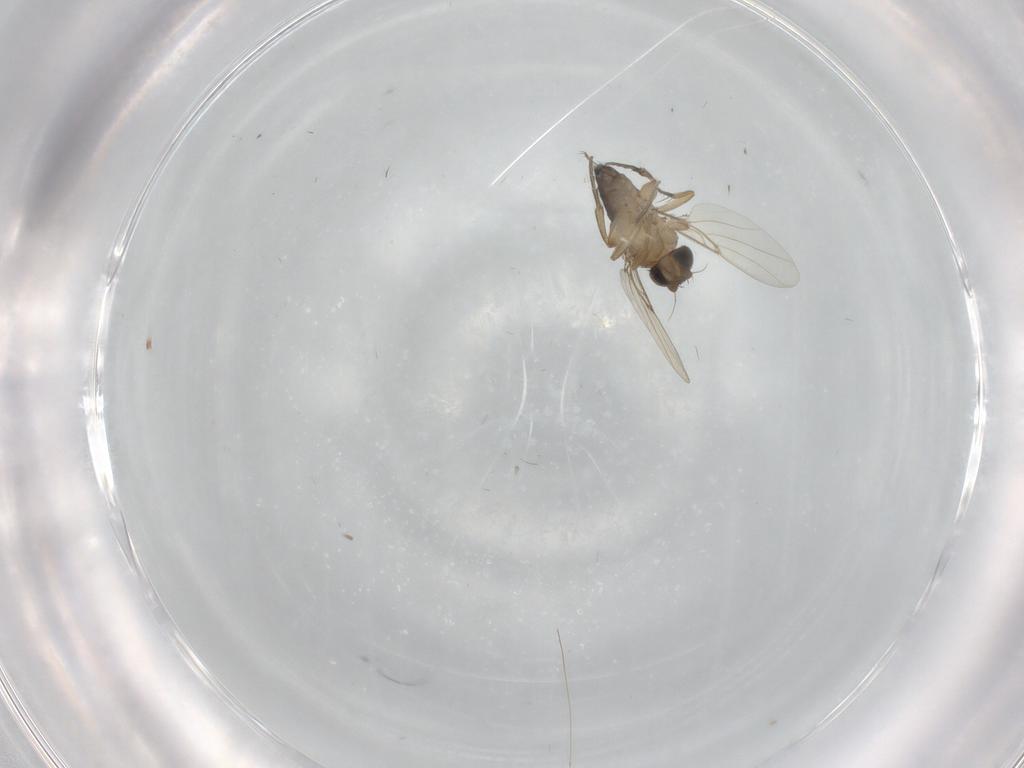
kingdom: Animalia
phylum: Arthropoda
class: Insecta
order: Diptera
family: Phoridae
